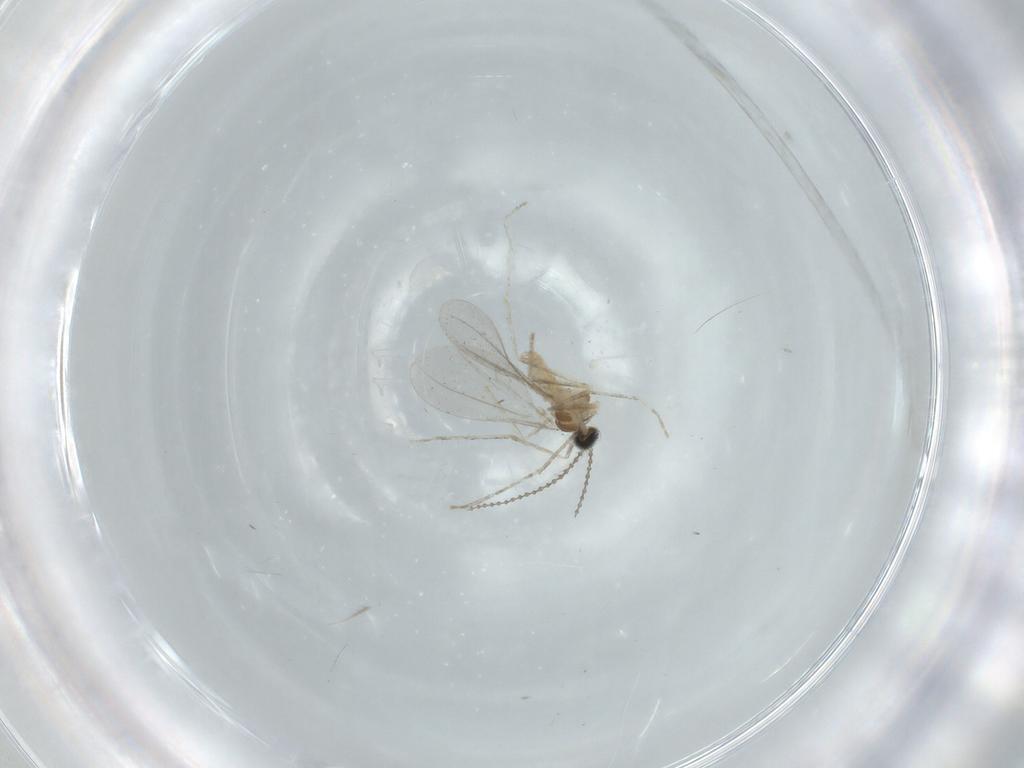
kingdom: Animalia
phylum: Arthropoda
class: Insecta
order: Diptera
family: Cecidomyiidae
